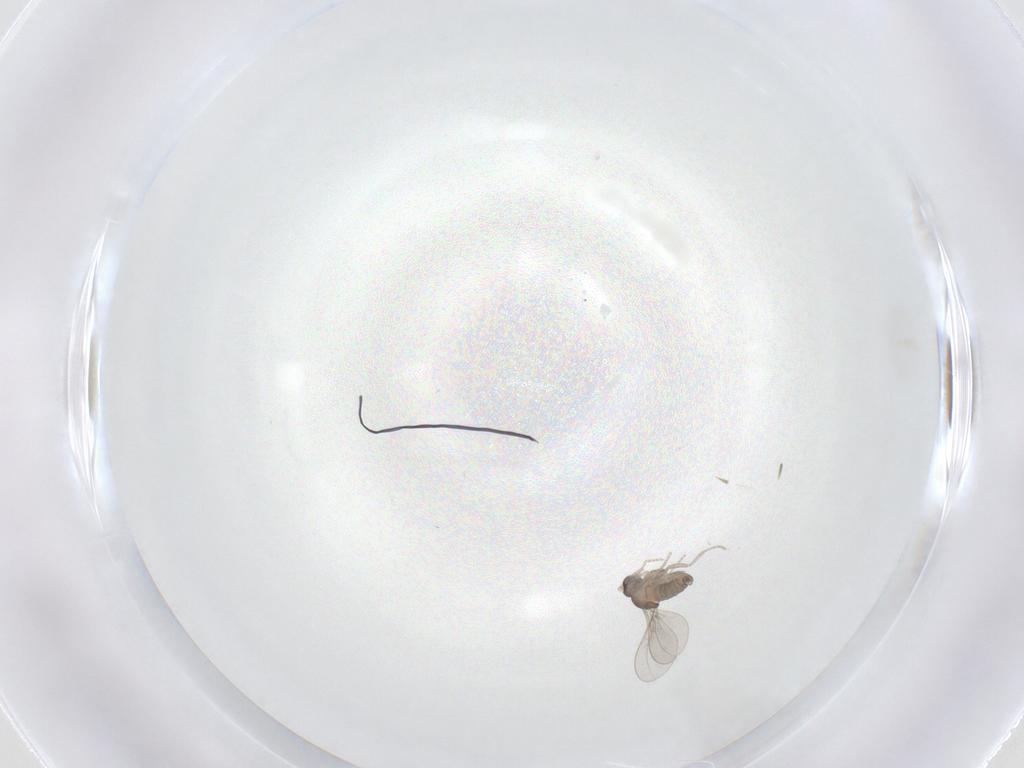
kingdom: Animalia
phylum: Arthropoda
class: Insecta
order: Diptera
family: Cecidomyiidae
